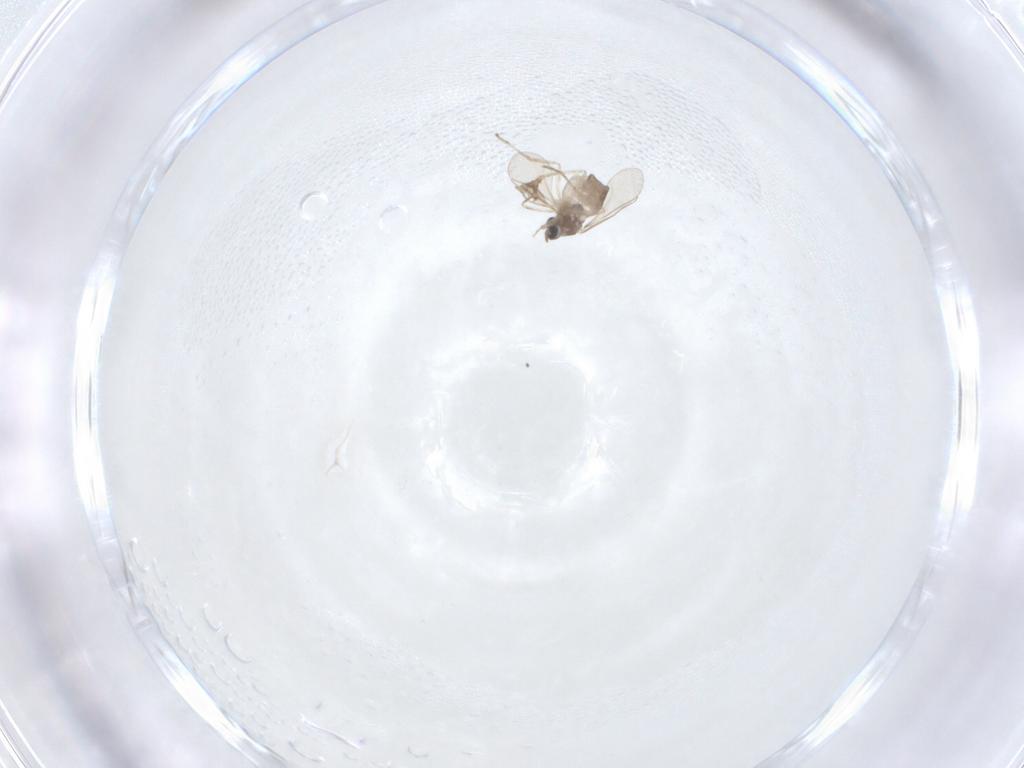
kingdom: Animalia
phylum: Arthropoda
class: Insecta
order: Diptera
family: Cecidomyiidae
